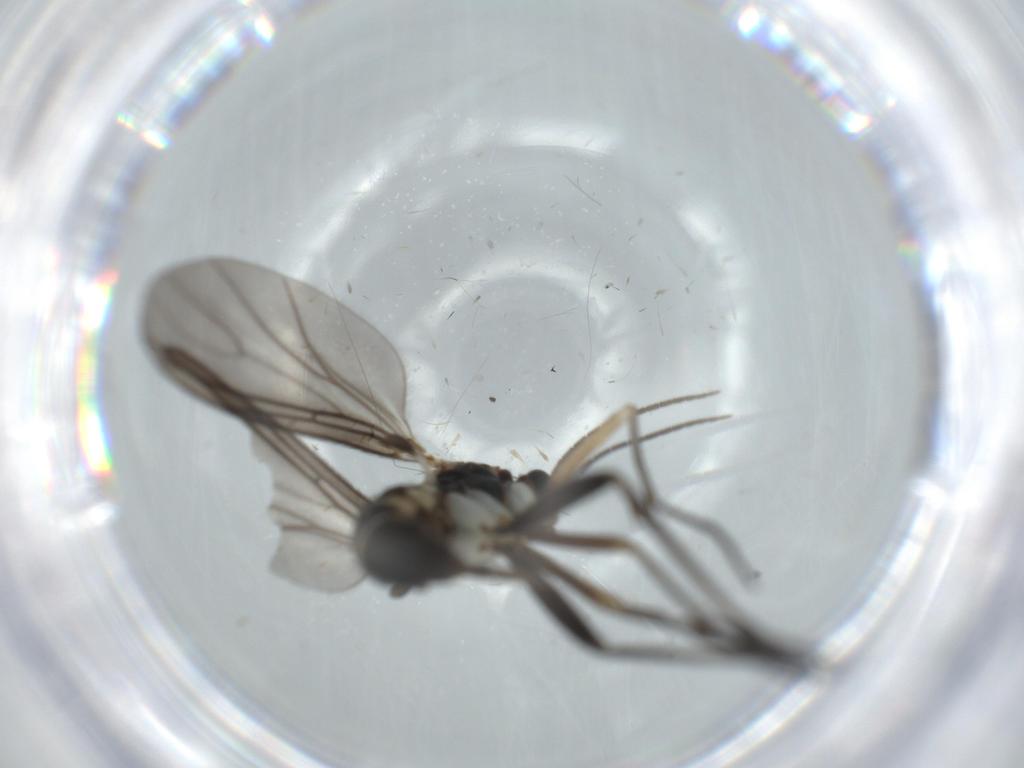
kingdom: Animalia
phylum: Arthropoda
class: Insecta
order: Diptera
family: Sciaridae
